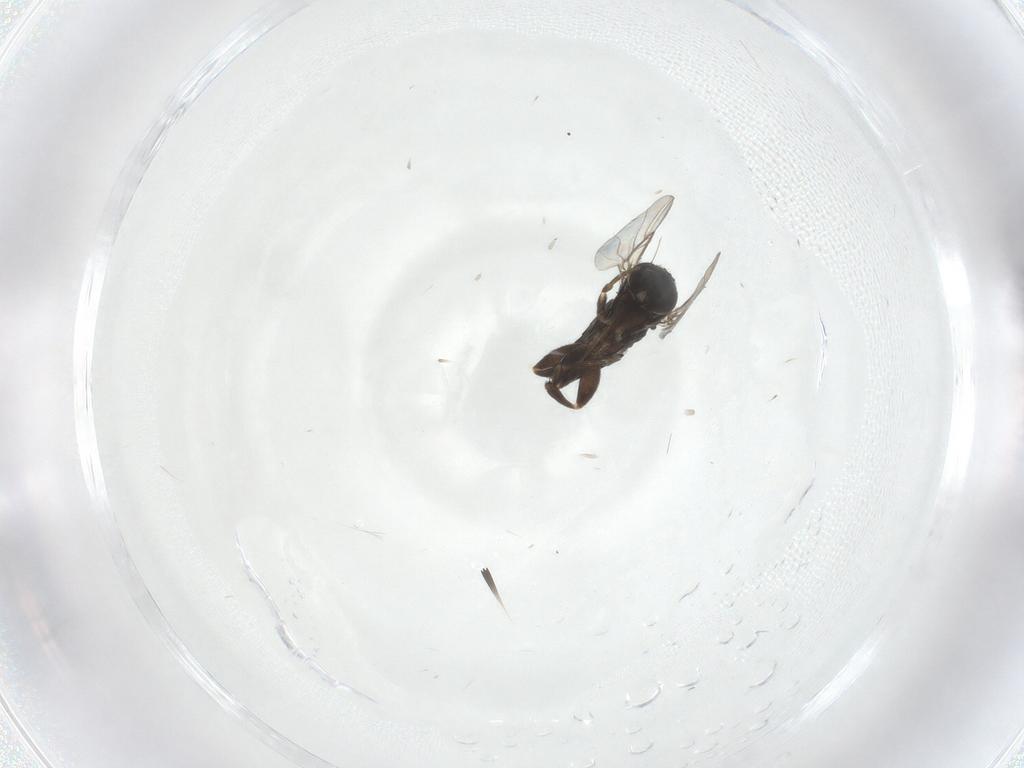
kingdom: Animalia
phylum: Arthropoda
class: Insecta
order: Diptera
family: Phoridae
